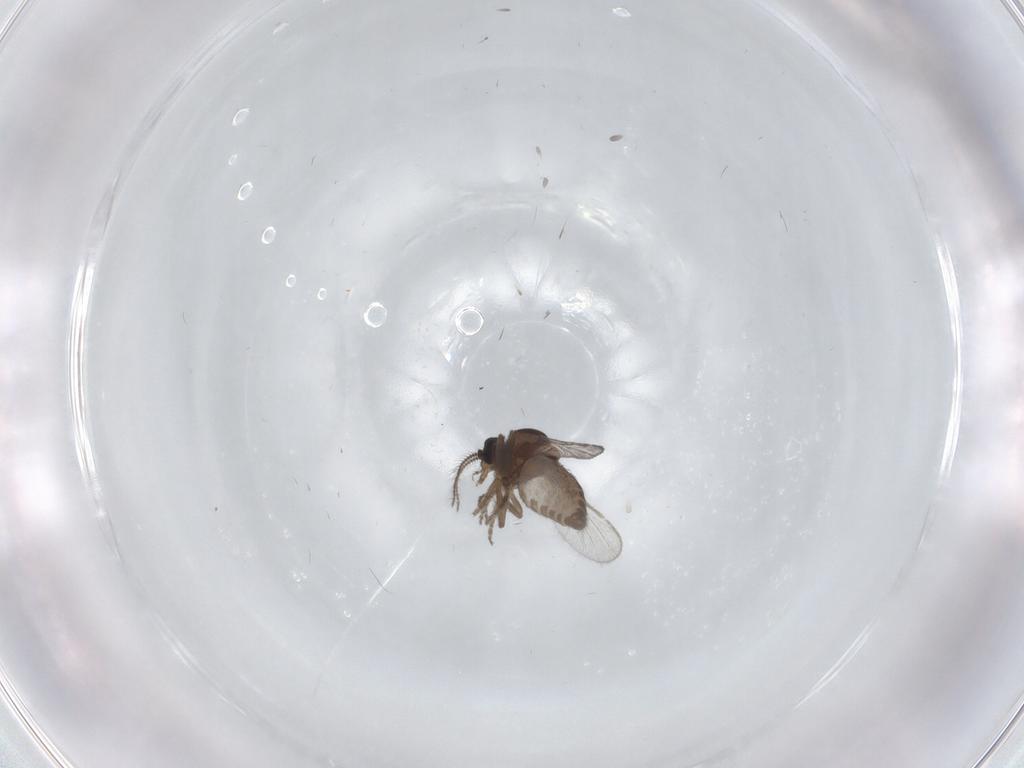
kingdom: Animalia
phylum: Arthropoda
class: Insecta
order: Diptera
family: Ceratopogonidae
